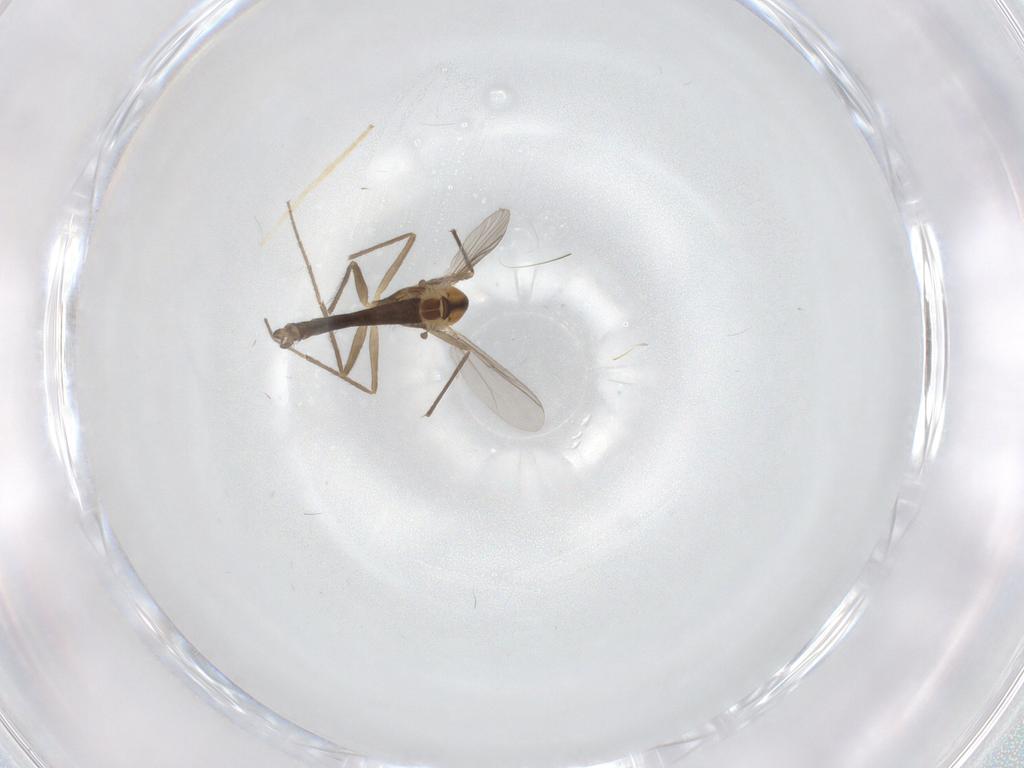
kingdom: Animalia
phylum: Arthropoda
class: Insecta
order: Diptera
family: Chironomidae
